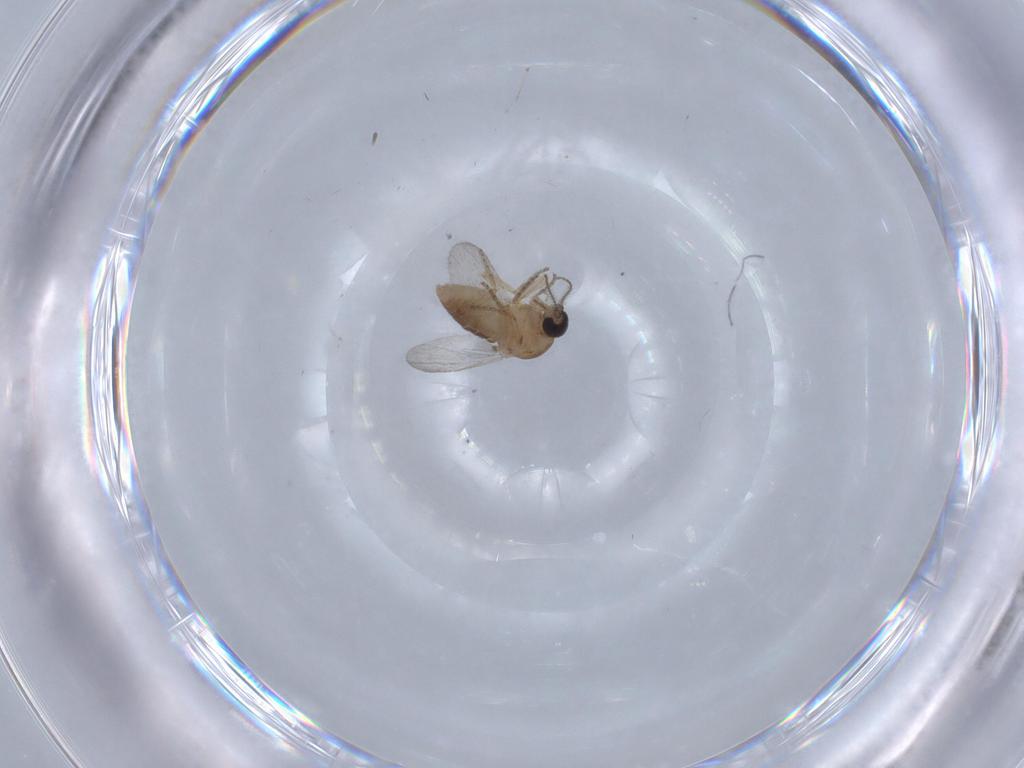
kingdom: Animalia
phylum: Arthropoda
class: Insecta
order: Diptera
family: Ceratopogonidae
